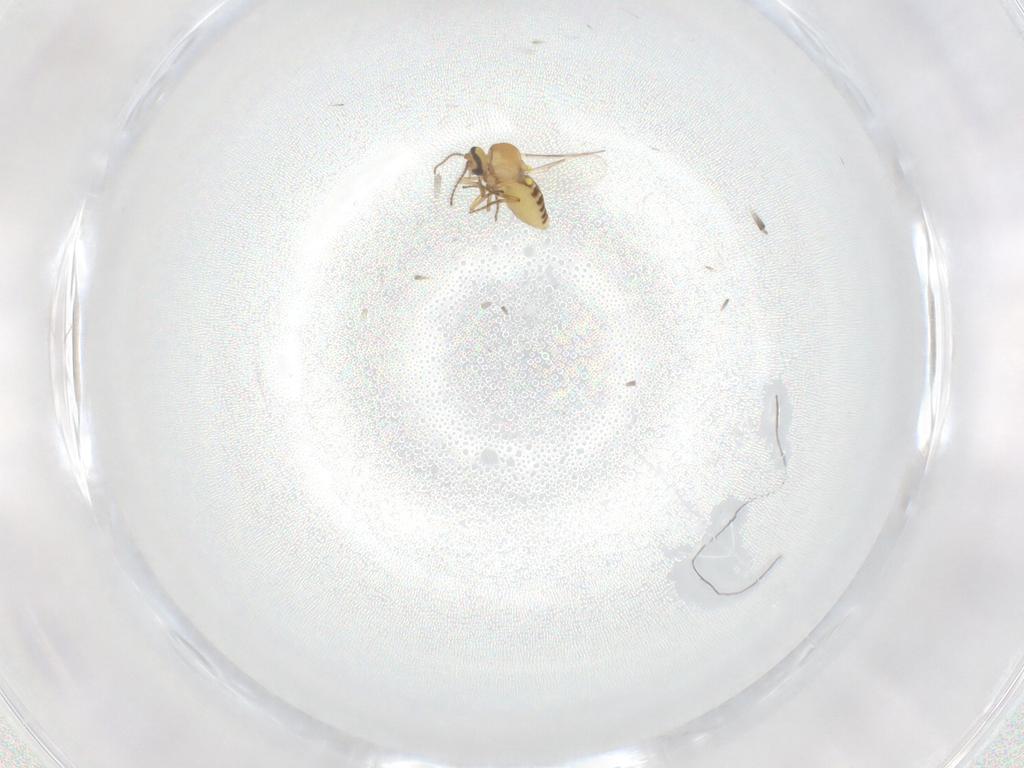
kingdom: Animalia
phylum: Arthropoda
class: Insecta
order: Diptera
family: Ceratopogonidae
